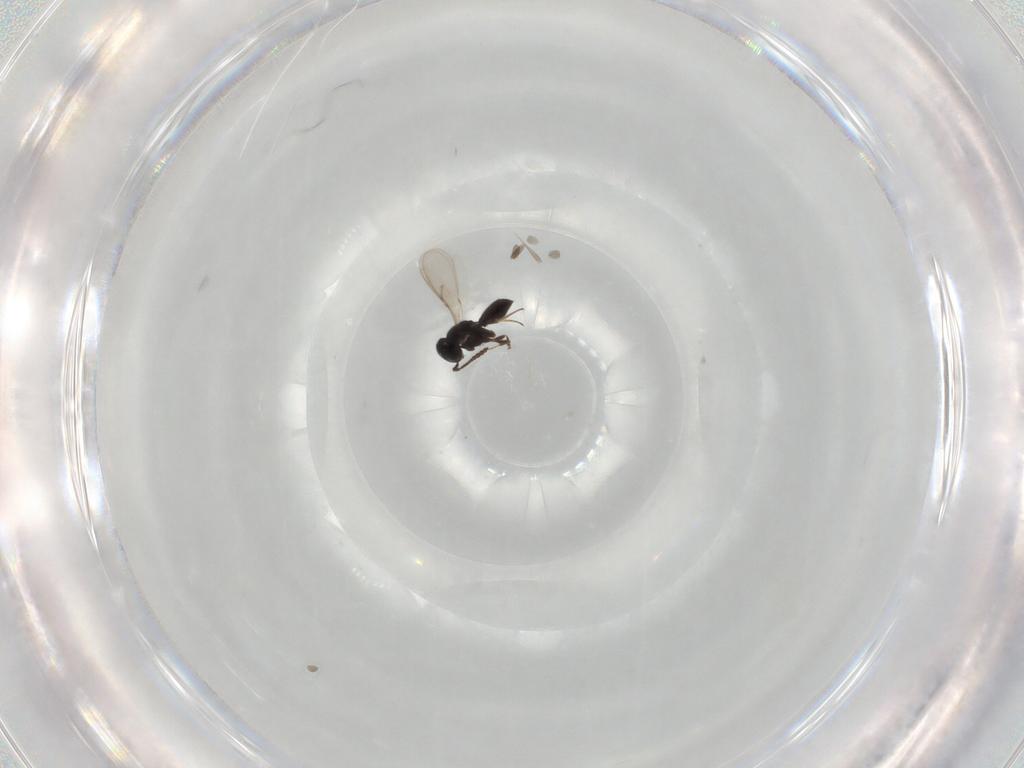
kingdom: Animalia
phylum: Arthropoda
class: Insecta
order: Hymenoptera
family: Scelionidae
